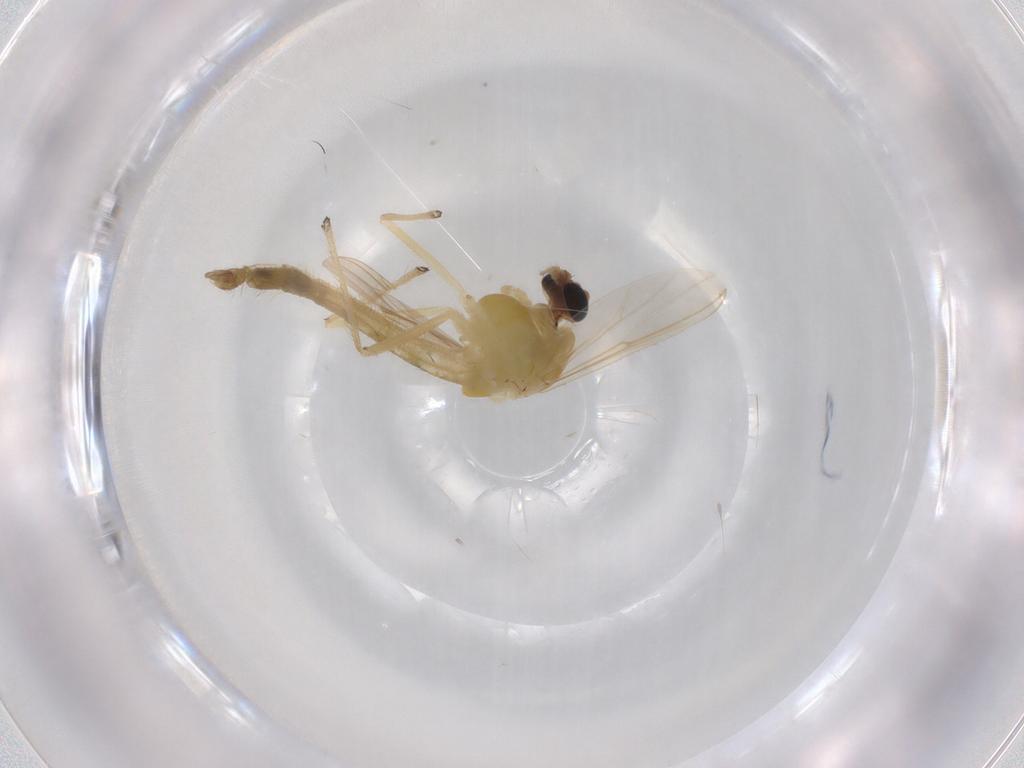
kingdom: Animalia
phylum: Arthropoda
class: Insecta
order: Diptera
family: Chironomidae
